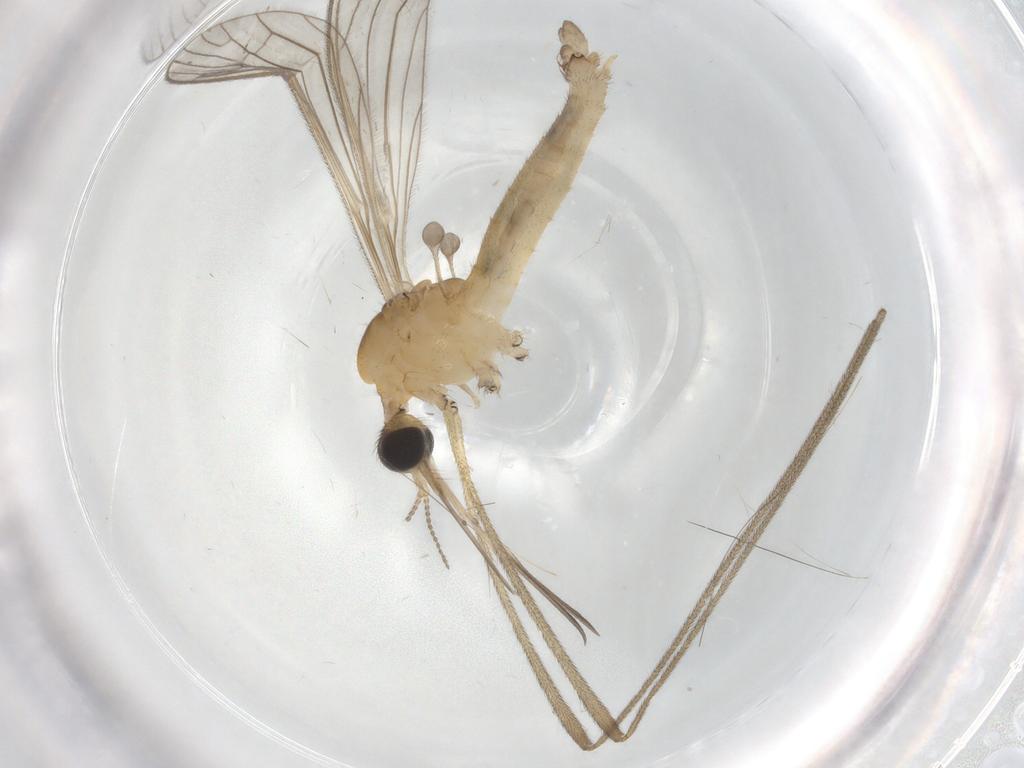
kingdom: Animalia
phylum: Arthropoda
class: Insecta
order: Diptera
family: Dolichopodidae
